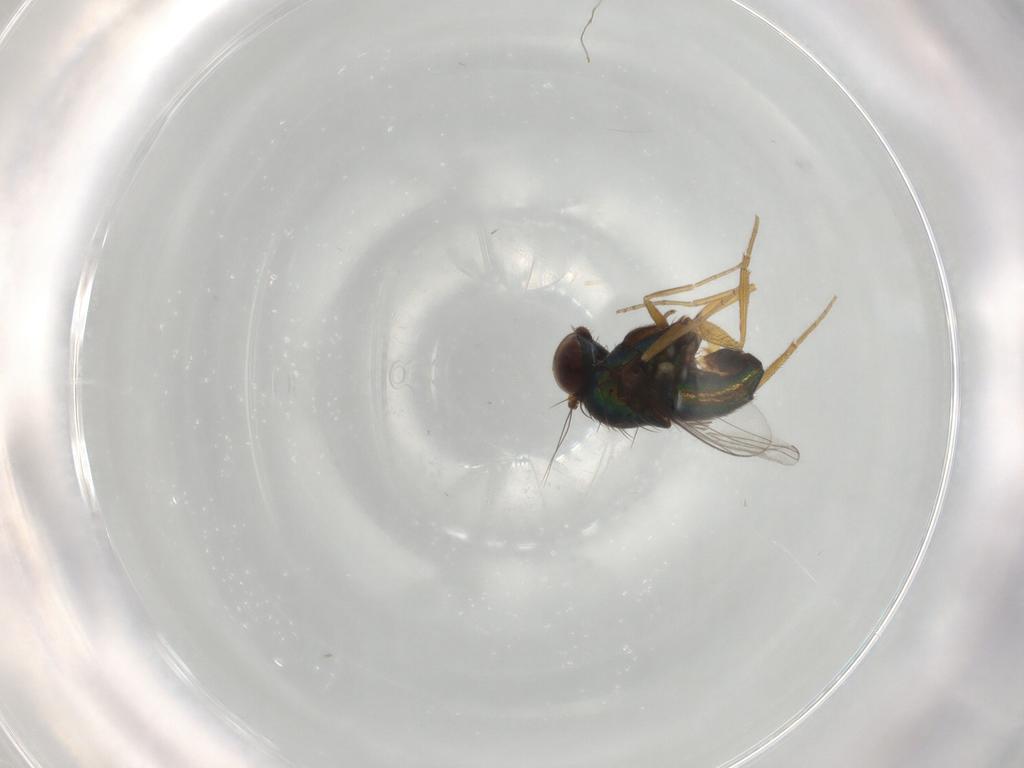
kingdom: Animalia
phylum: Arthropoda
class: Insecta
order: Diptera
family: Dolichopodidae
